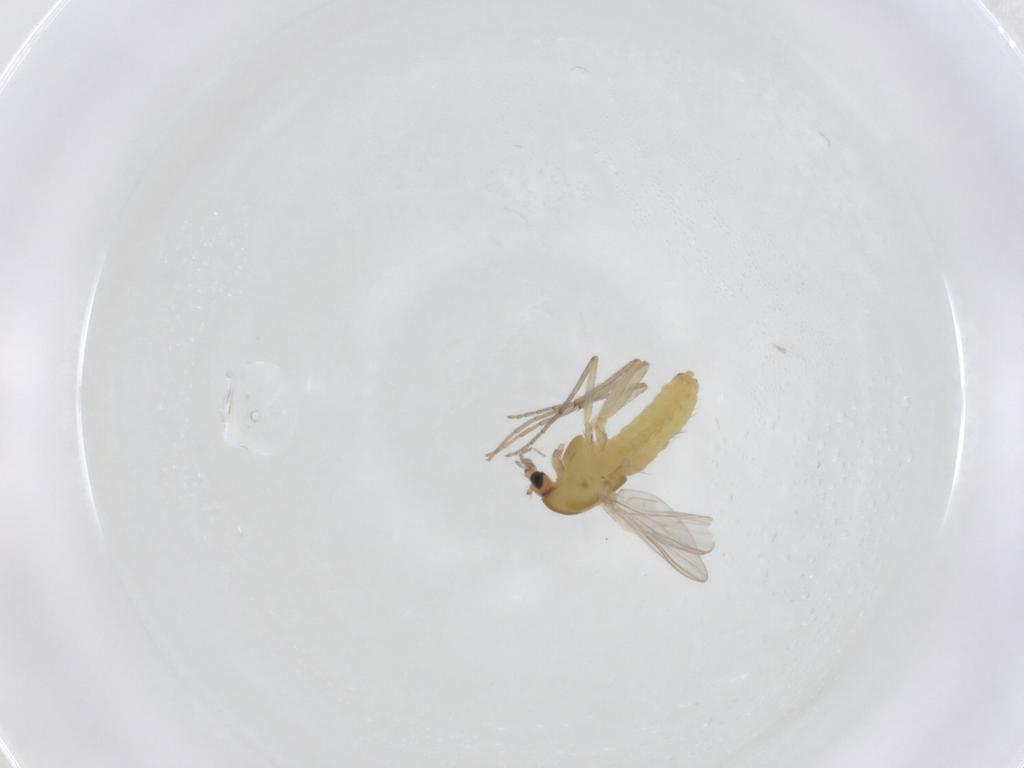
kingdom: Animalia
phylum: Arthropoda
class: Insecta
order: Diptera
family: Chironomidae
